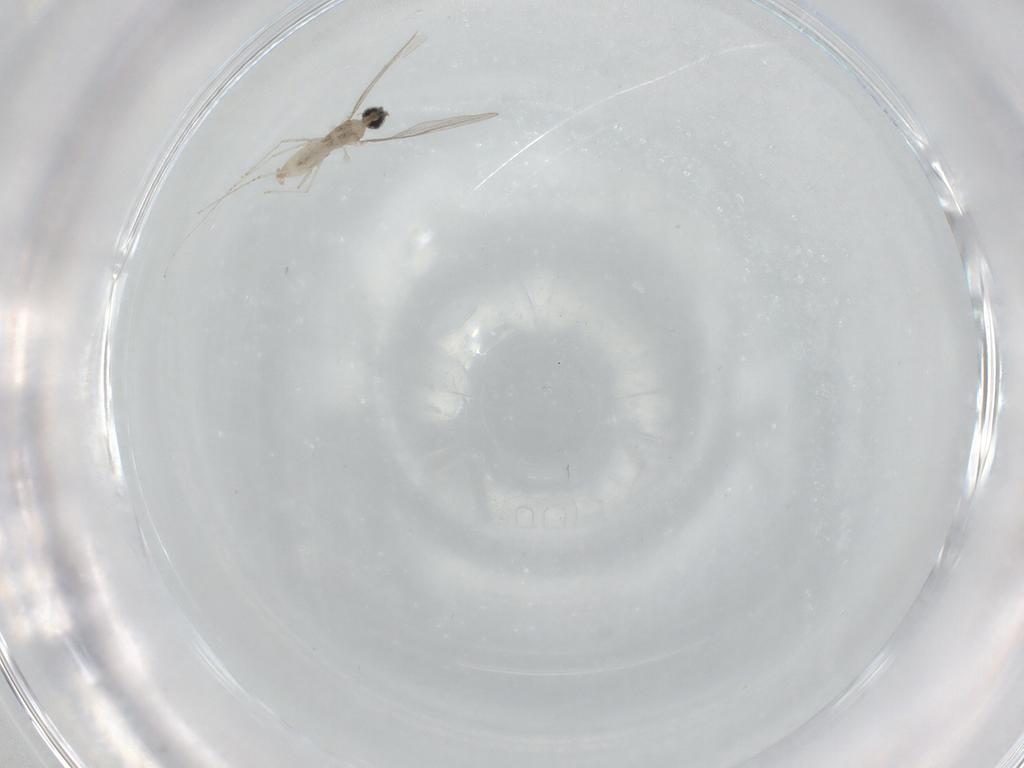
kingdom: Animalia
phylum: Arthropoda
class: Insecta
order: Diptera
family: Cecidomyiidae
